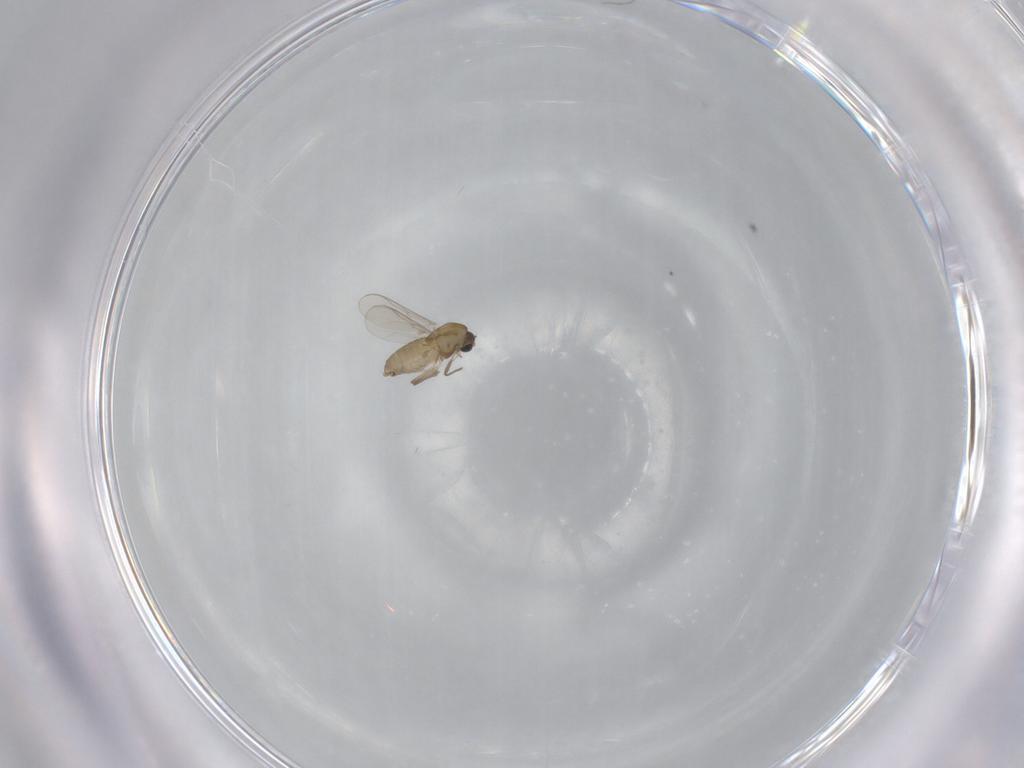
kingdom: Animalia
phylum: Arthropoda
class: Insecta
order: Diptera
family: Chironomidae
